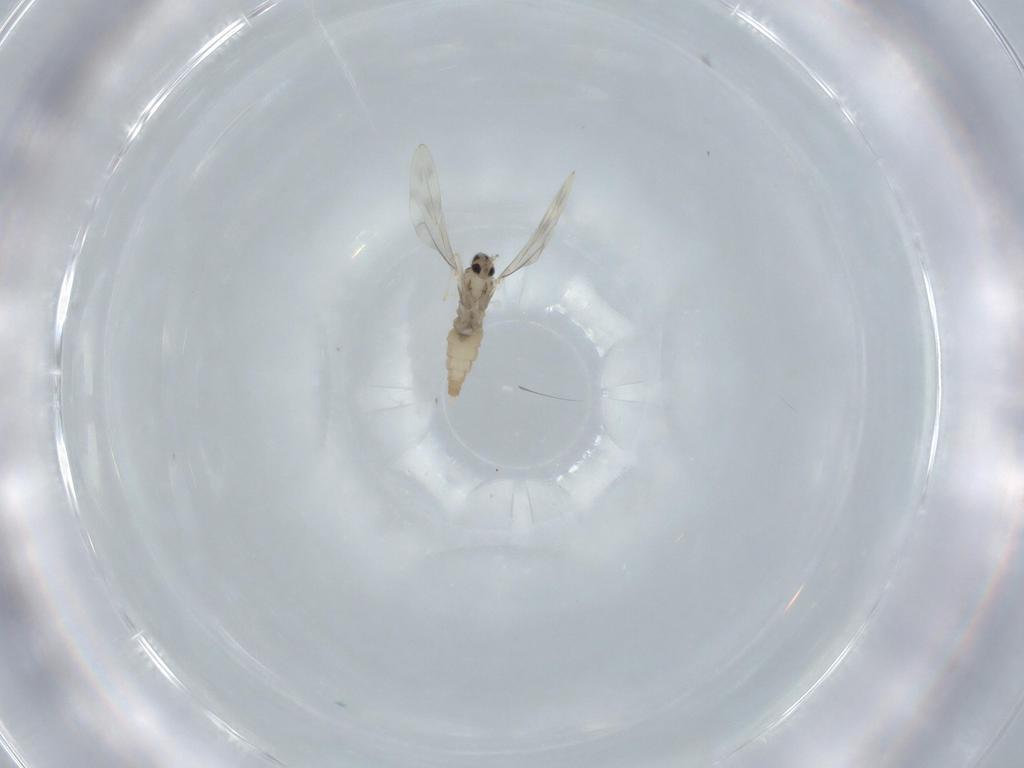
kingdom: Animalia
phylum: Arthropoda
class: Insecta
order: Diptera
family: Cecidomyiidae
